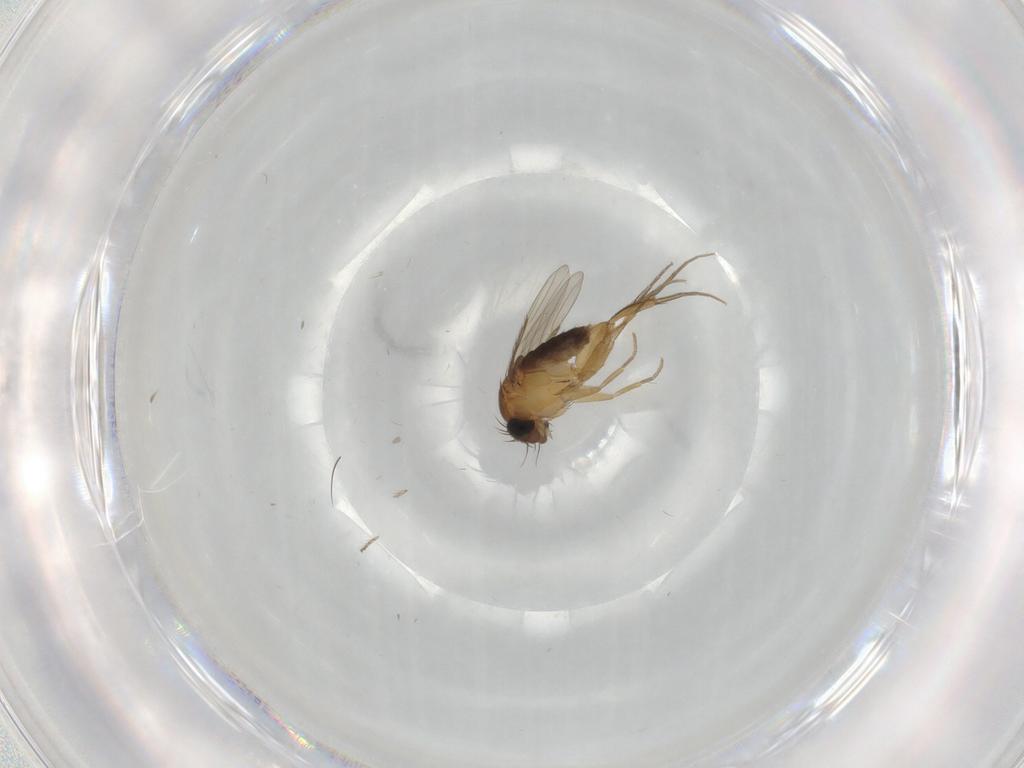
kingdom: Animalia
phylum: Arthropoda
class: Insecta
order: Diptera
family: Phoridae
